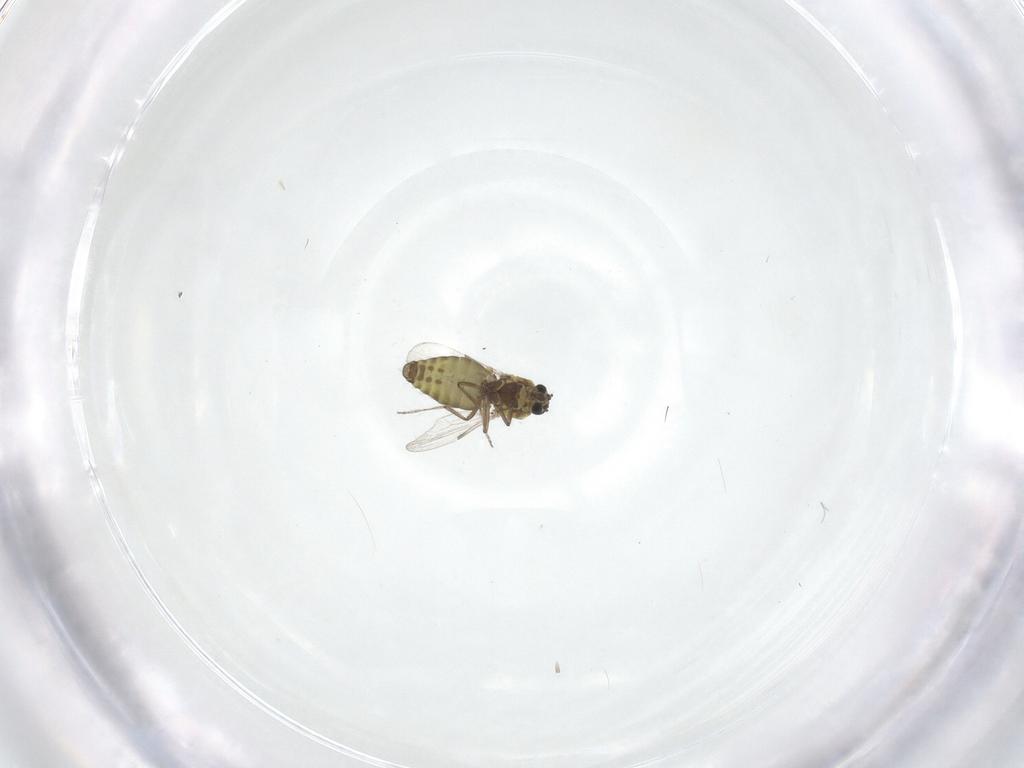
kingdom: Animalia
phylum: Arthropoda
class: Insecta
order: Diptera
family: Ceratopogonidae
